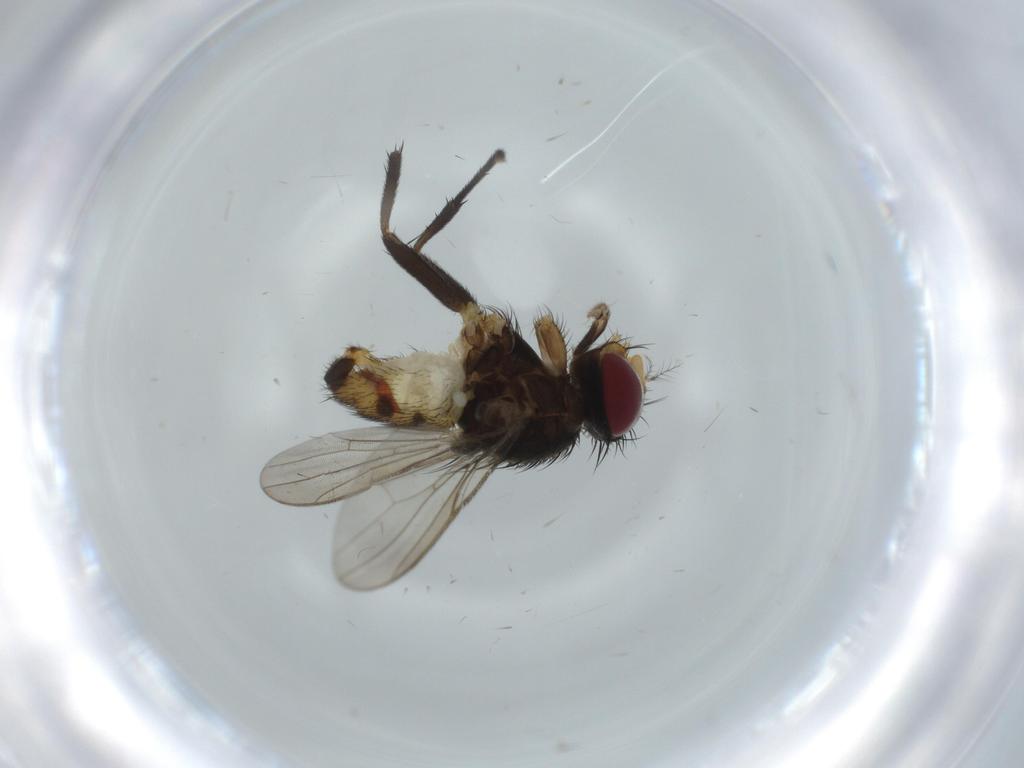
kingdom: Animalia
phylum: Arthropoda
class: Insecta
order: Diptera
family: Anthomyiidae
